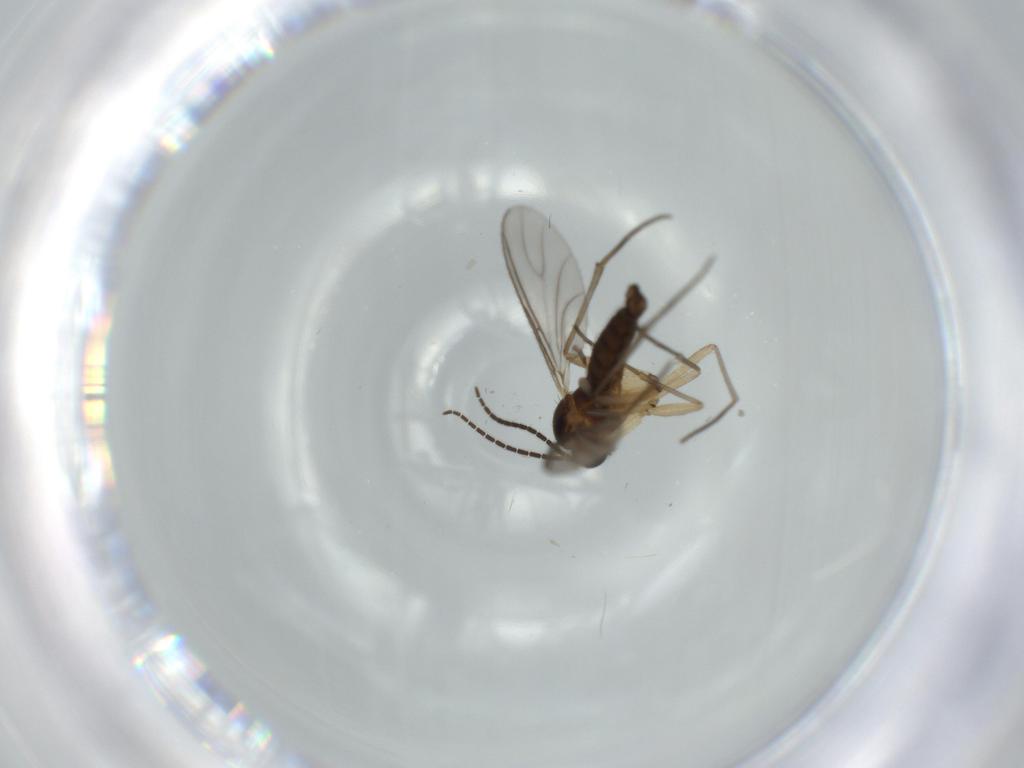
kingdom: Animalia
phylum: Arthropoda
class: Insecta
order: Diptera
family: Sciaridae
